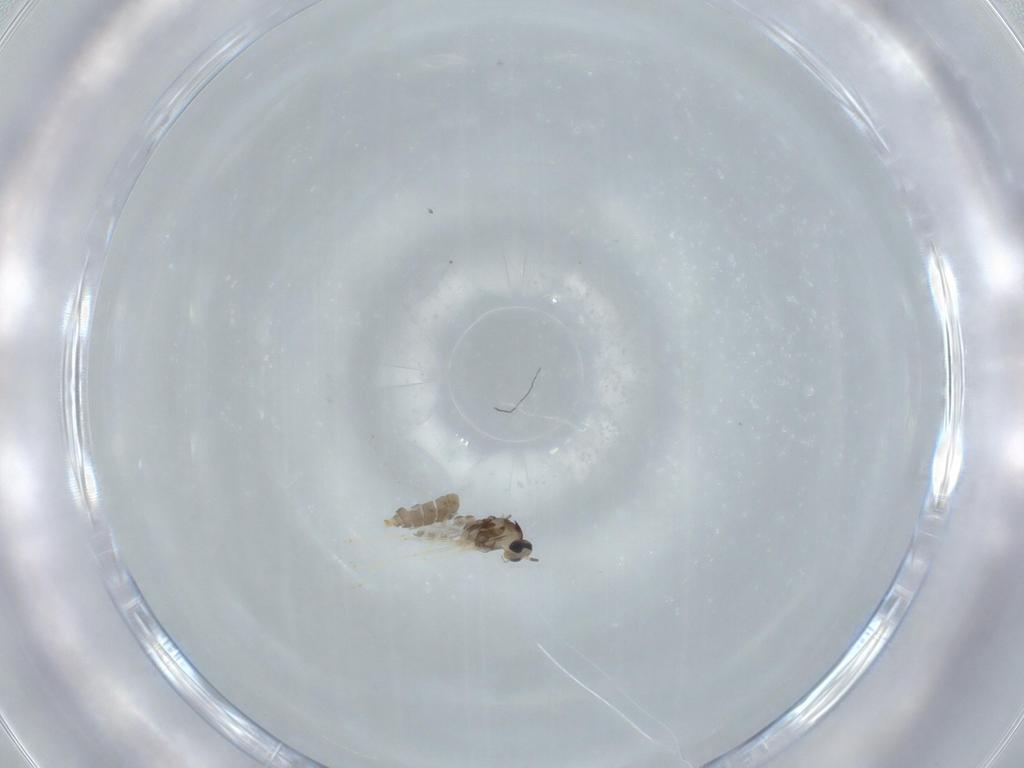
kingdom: Animalia
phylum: Arthropoda
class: Insecta
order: Diptera
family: Cecidomyiidae
